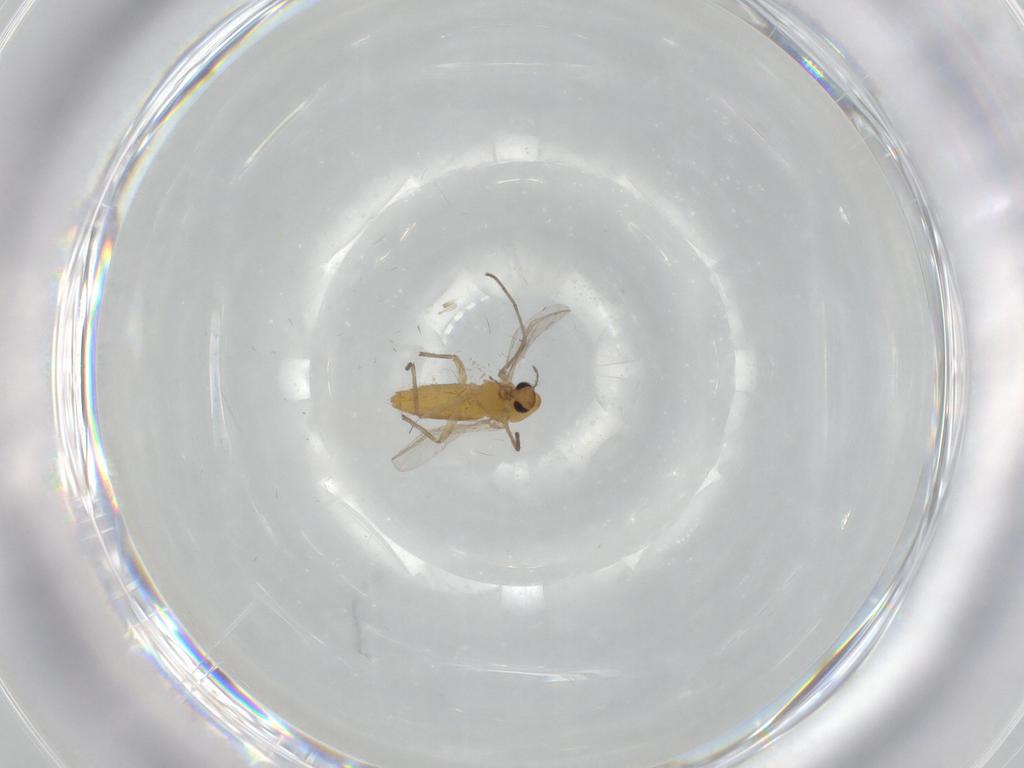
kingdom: Animalia
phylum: Arthropoda
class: Insecta
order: Diptera
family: Chironomidae
